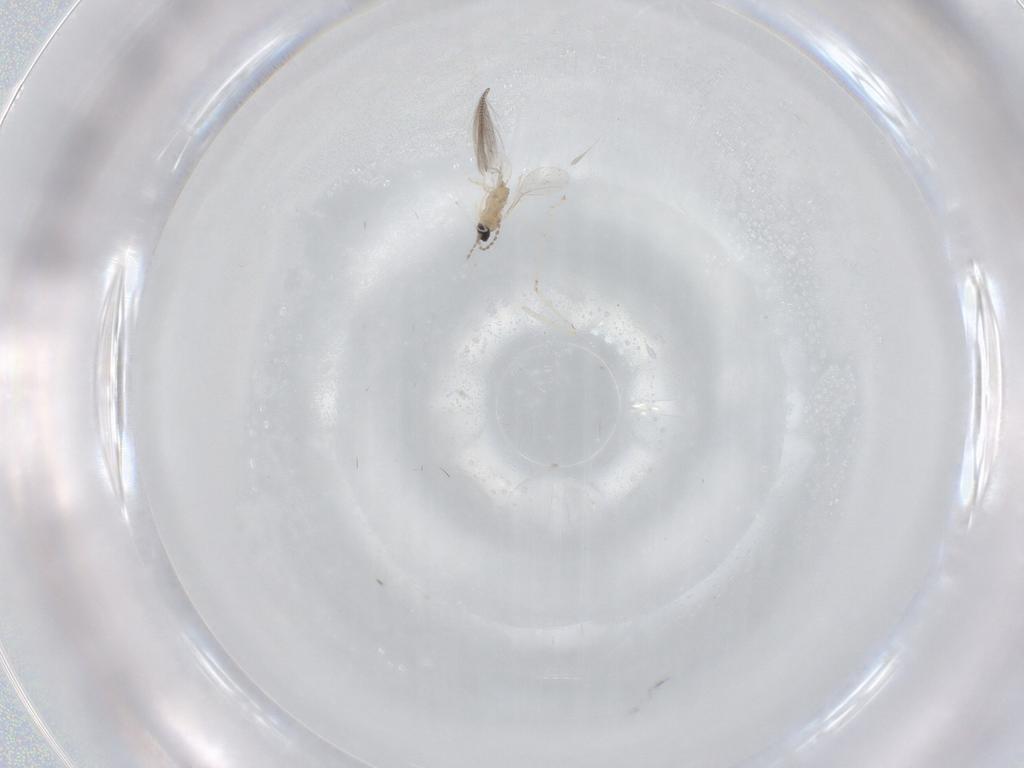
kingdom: Animalia
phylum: Arthropoda
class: Insecta
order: Diptera
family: Cecidomyiidae
